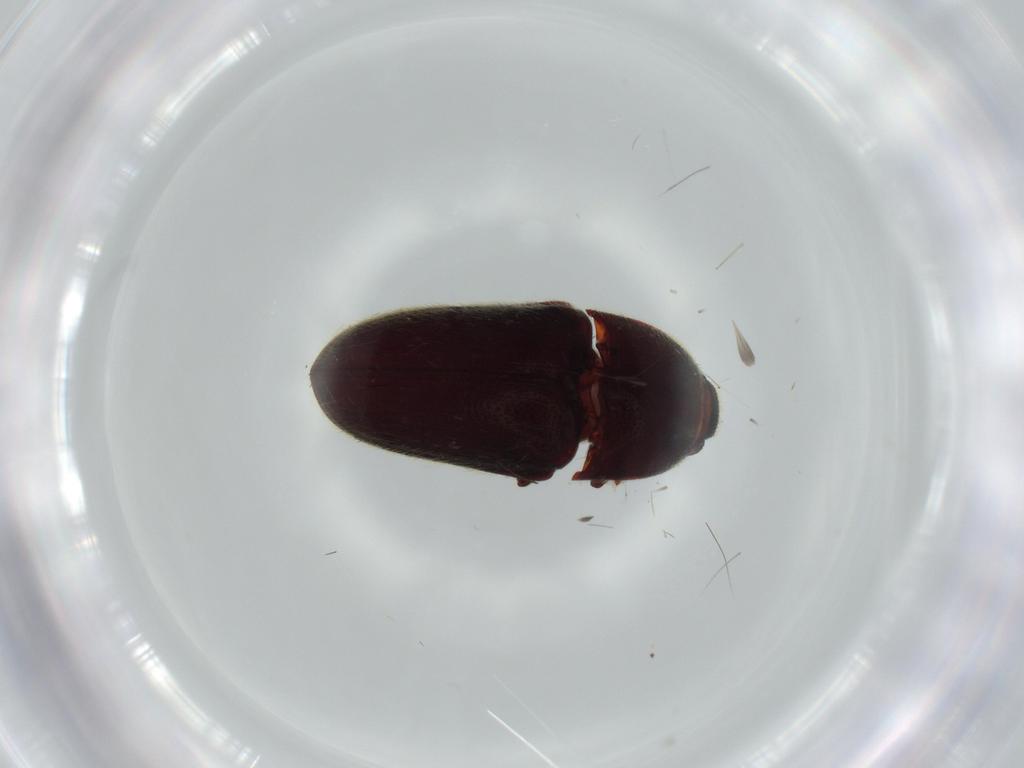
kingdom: Animalia
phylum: Arthropoda
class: Insecta
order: Coleoptera
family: Throscidae
